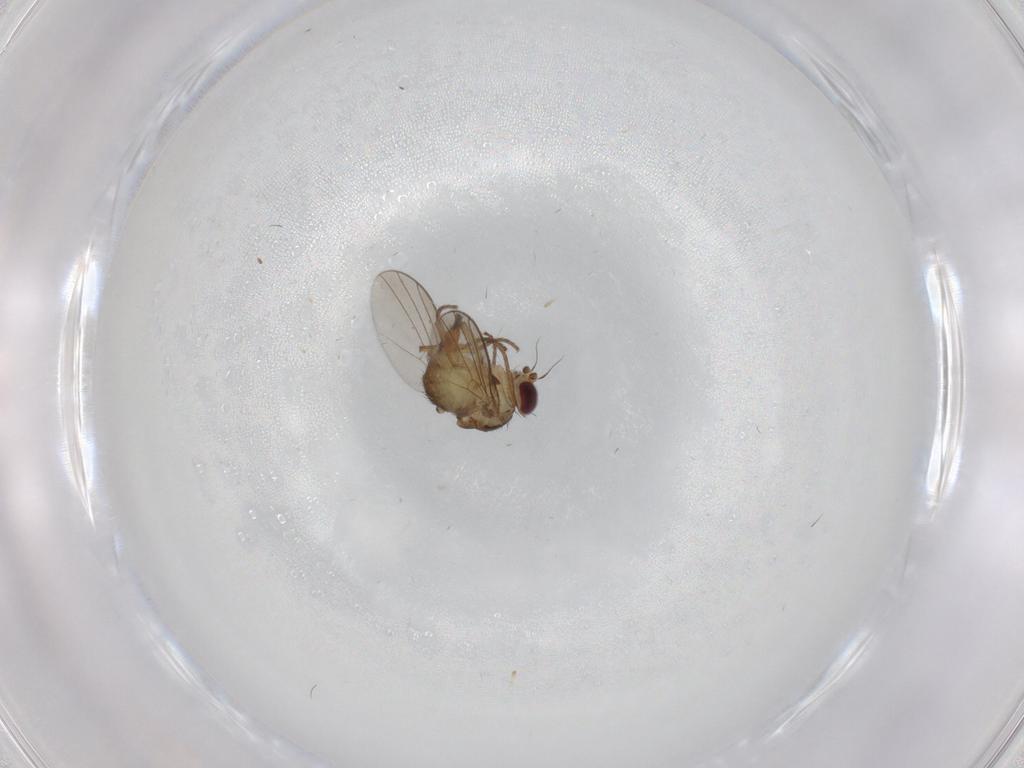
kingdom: Animalia
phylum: Arthropoda
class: Insecta
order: Diptera
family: Agromyzidae
